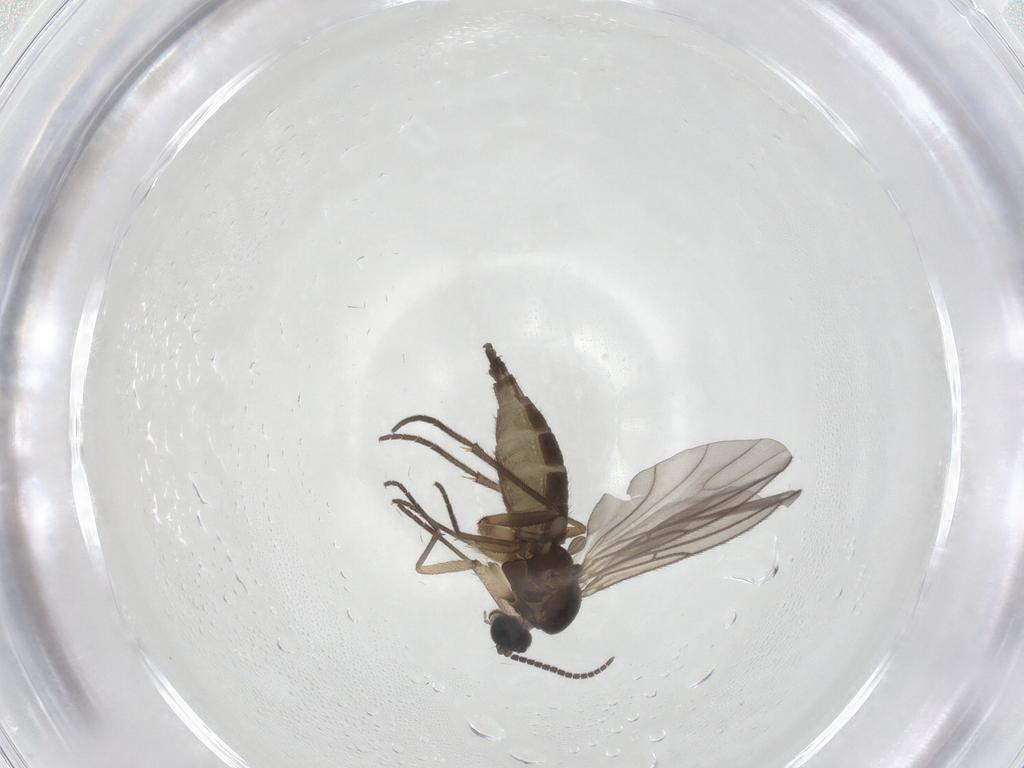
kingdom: Animalia
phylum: Arthropoda
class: Insecta
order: Diptera
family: Sciaridae
